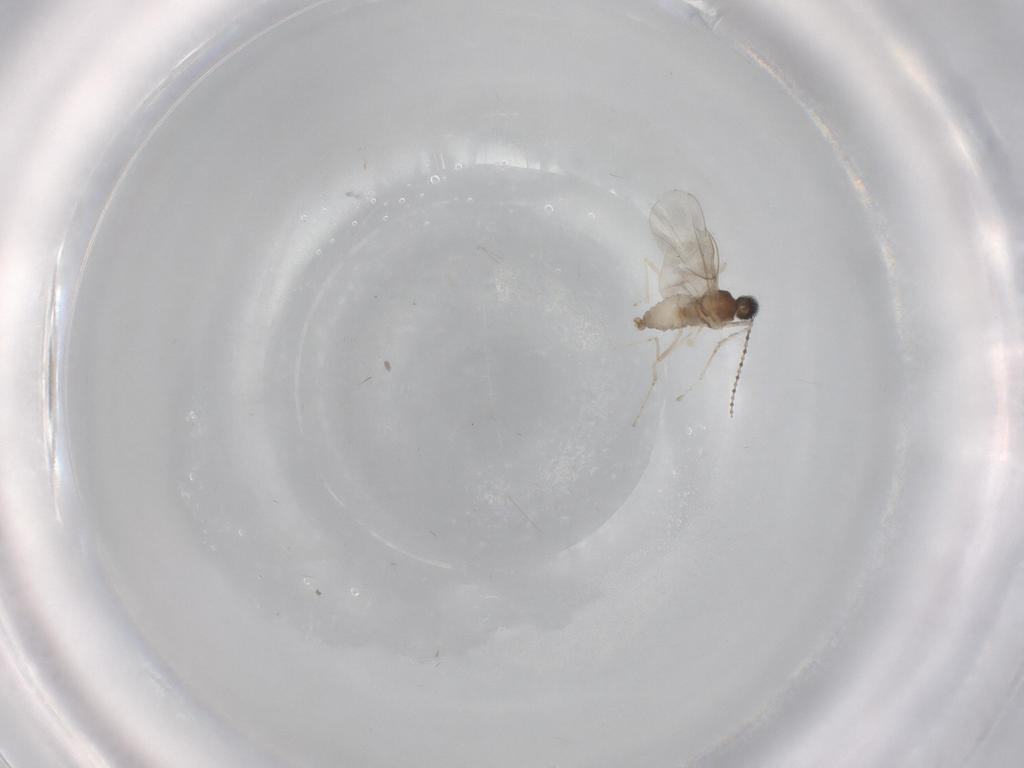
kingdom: Animalia
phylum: Arthropoda
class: Insecta
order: Diptera
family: Cecidomyiidae
